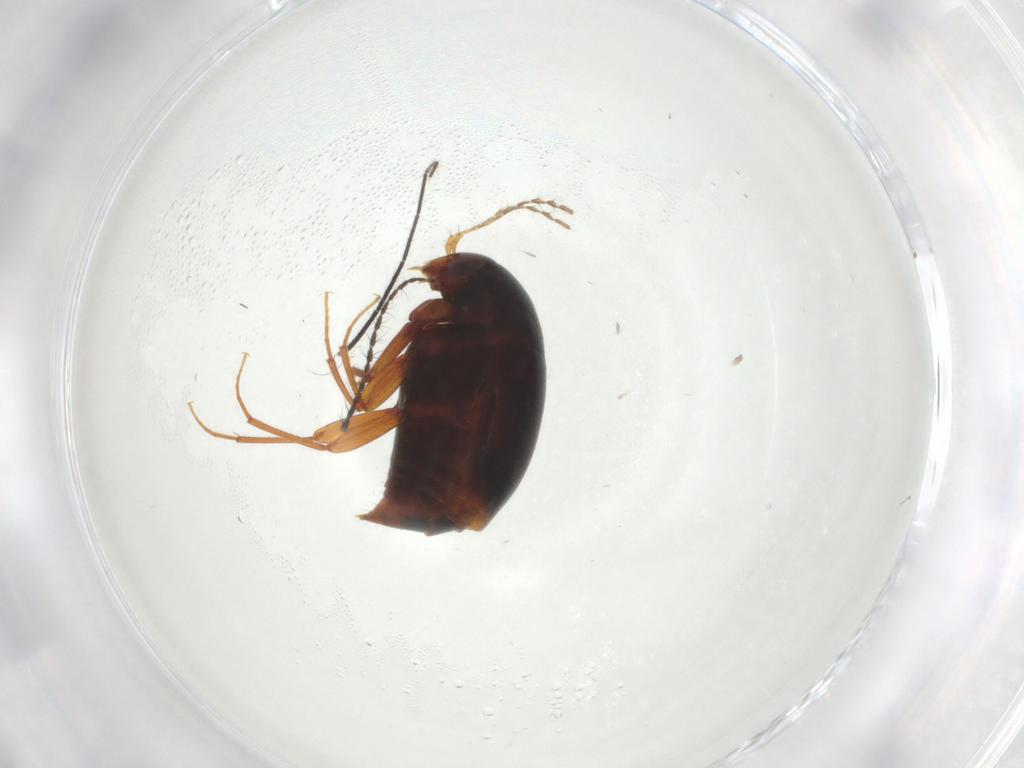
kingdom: Animalia
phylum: Arthropoda
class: Insecta
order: Coleoptera
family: Staphylinidae
